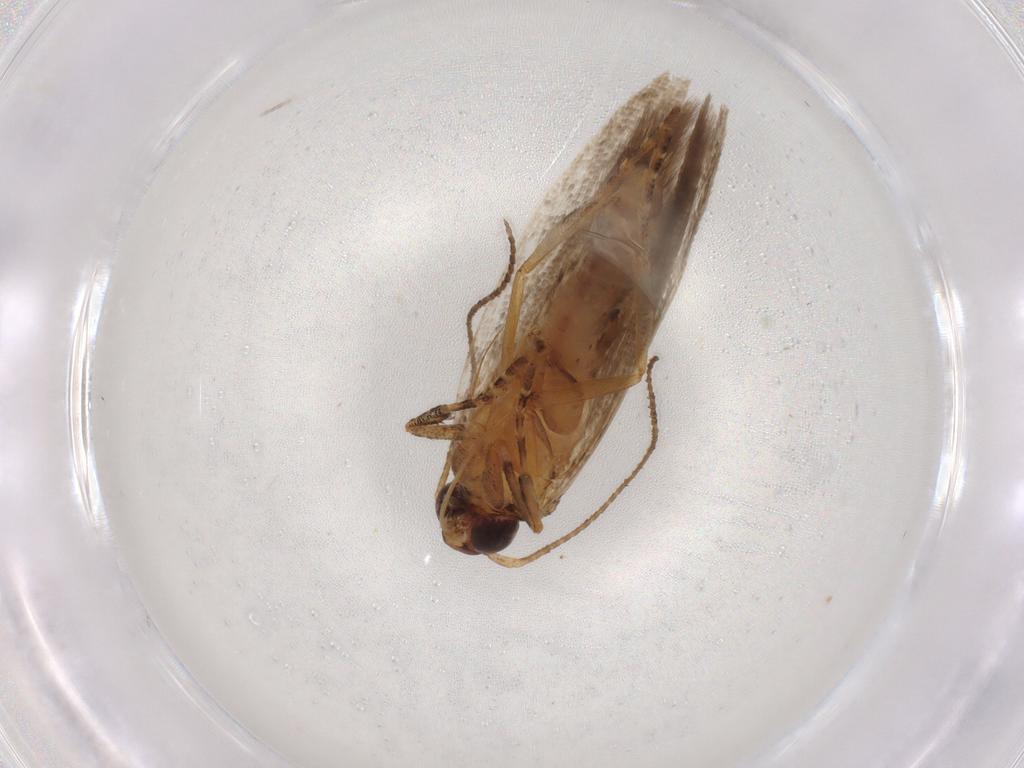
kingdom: Animalia
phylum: Arthropoda
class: Insecta
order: Lepidoptera
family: Gelechiidae
